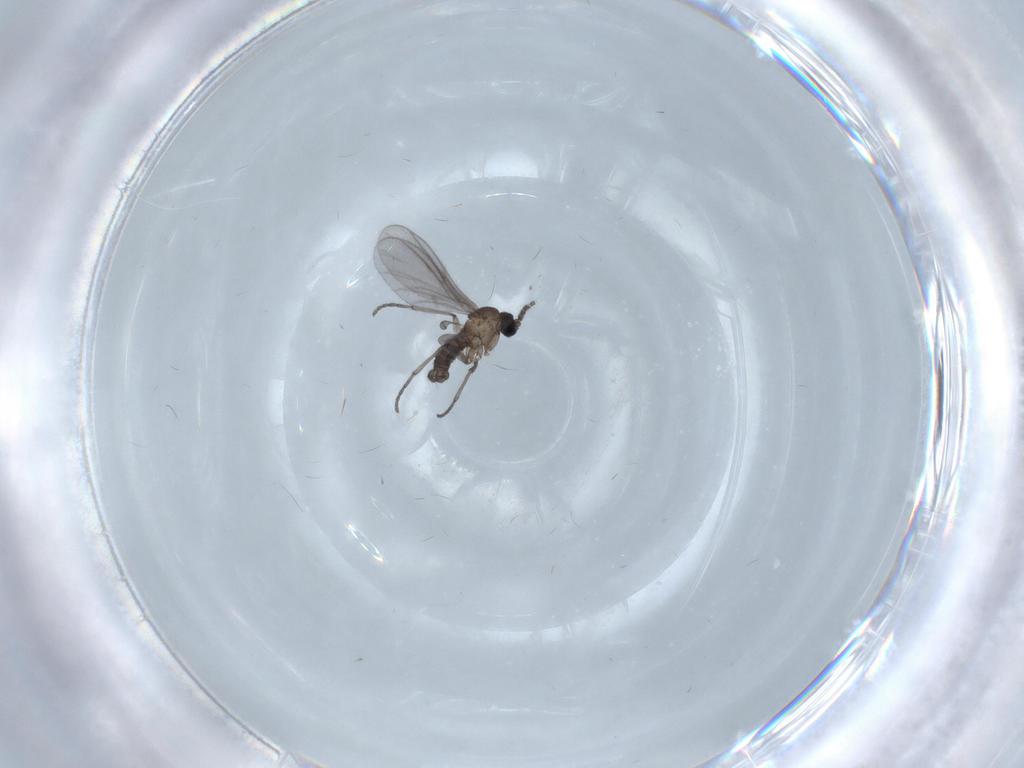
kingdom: Animalia
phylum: Arthropoda
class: Insecta
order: Diptera
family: Sciaridae
